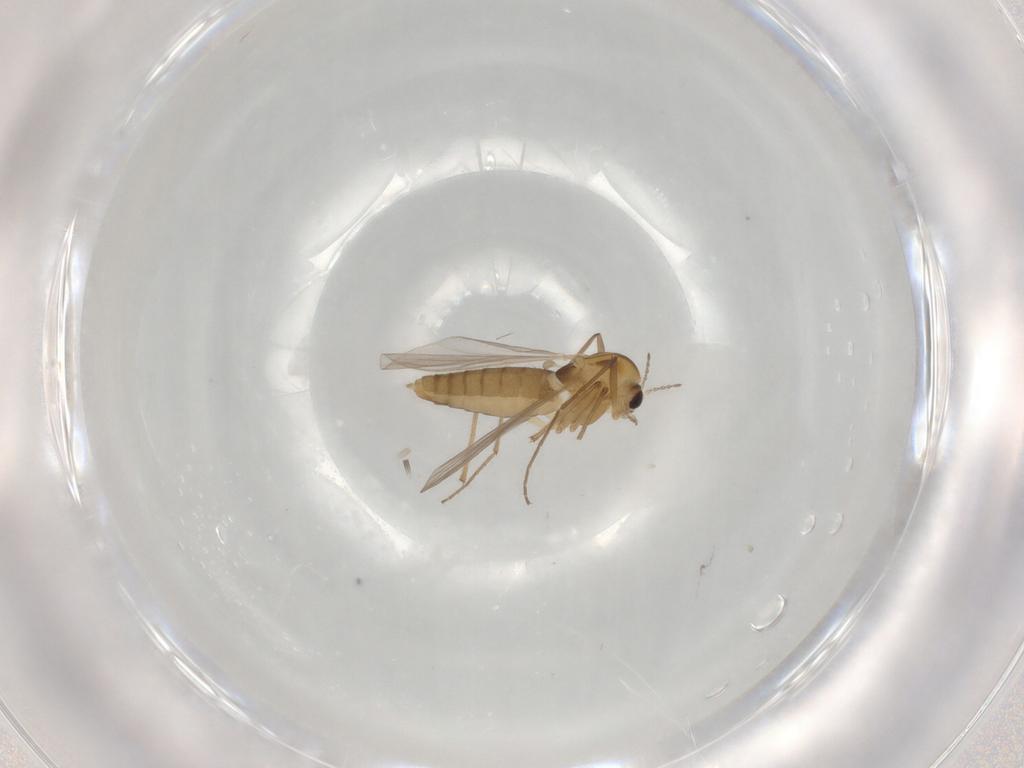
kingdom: Animalia
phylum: Arthropoda
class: Insecta
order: Diptera
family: Chironomidae
